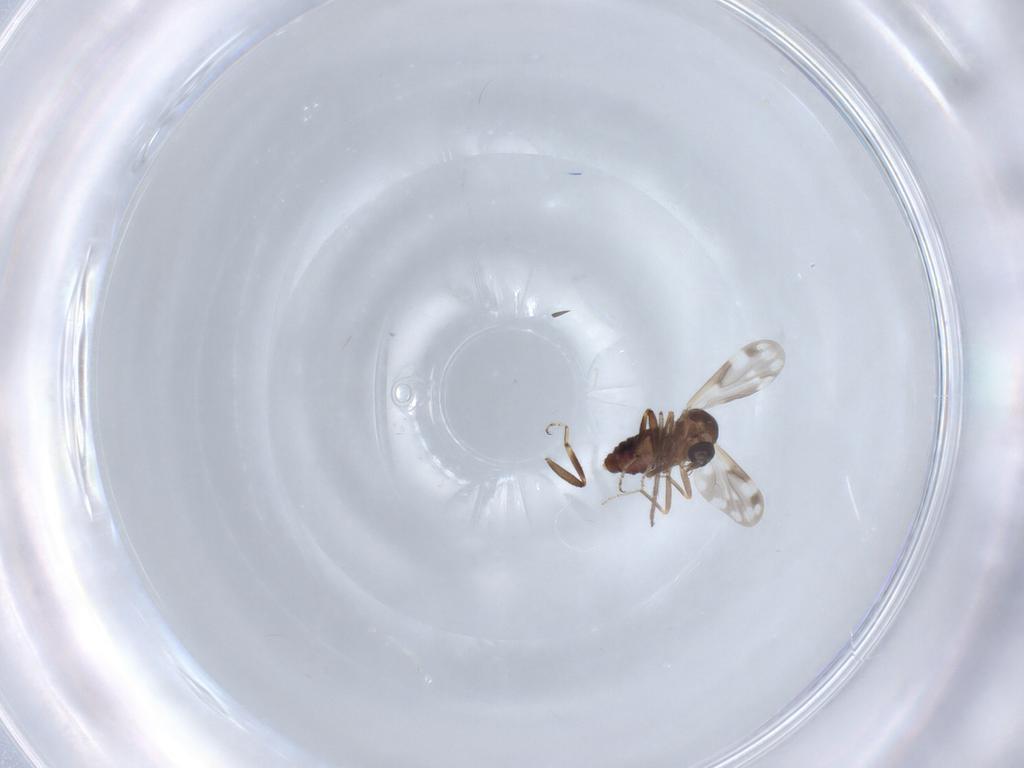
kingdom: Animalia
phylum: Arthropoda
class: Insecta
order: Diptera
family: Ceratopogonidae
